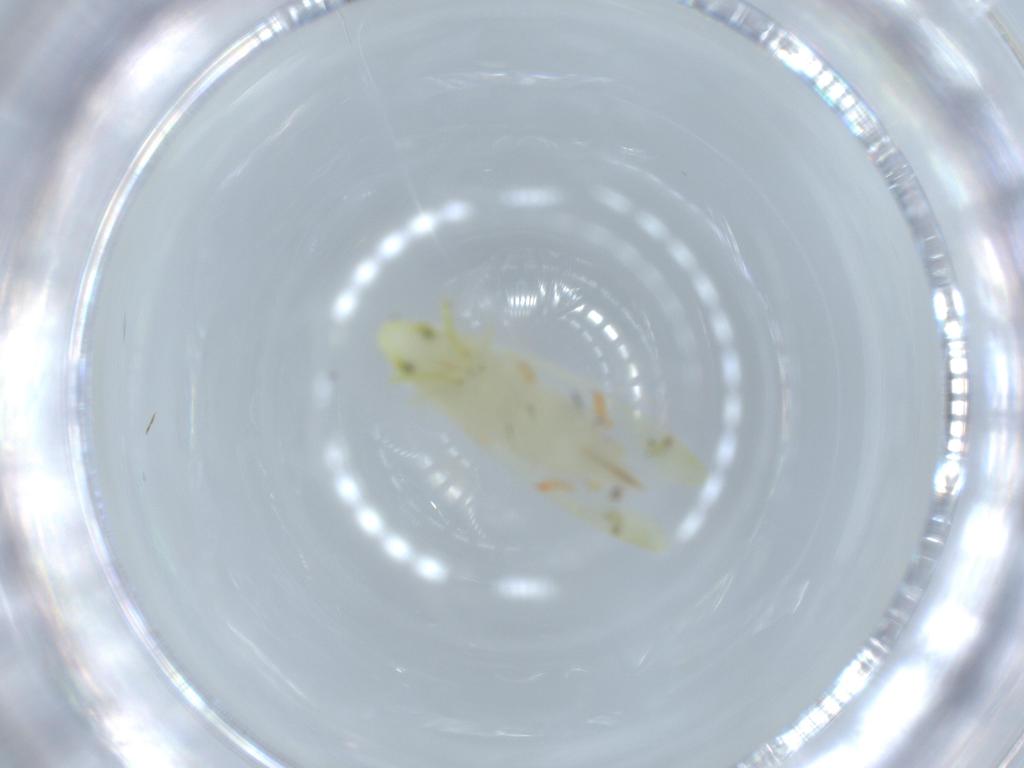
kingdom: Animalia
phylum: Arthropoda
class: Insecta
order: Hemiptera
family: Cicadellidae
